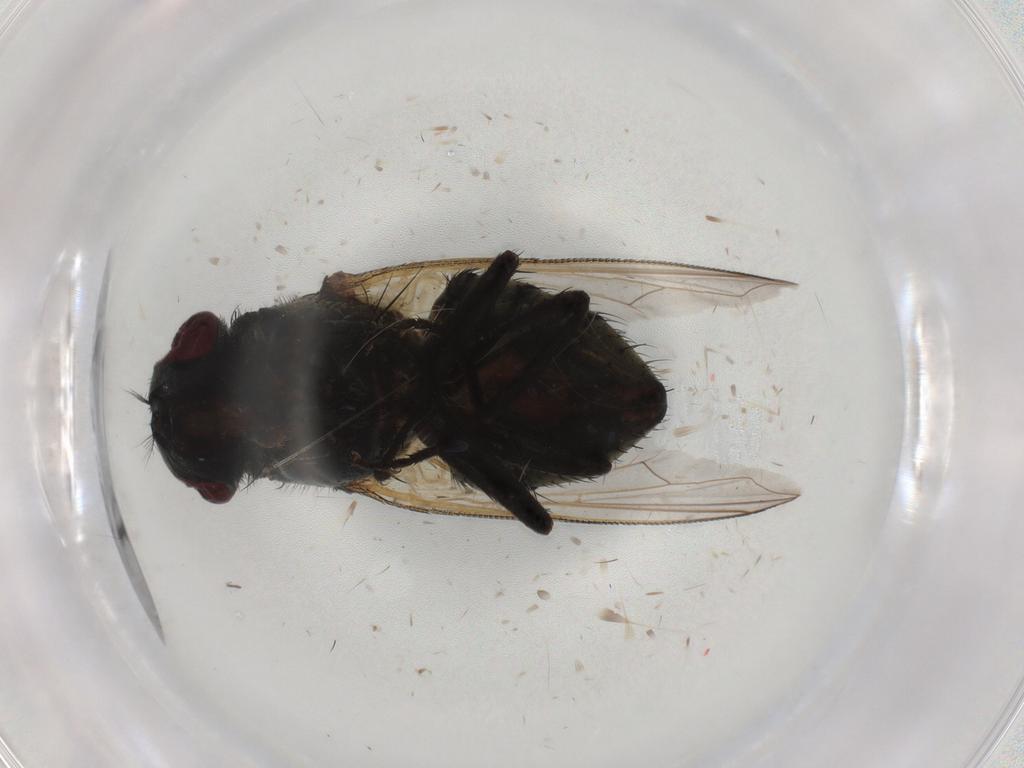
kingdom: Animalia
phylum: Arthropoda
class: Insecta
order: Diptera
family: Muscidae
